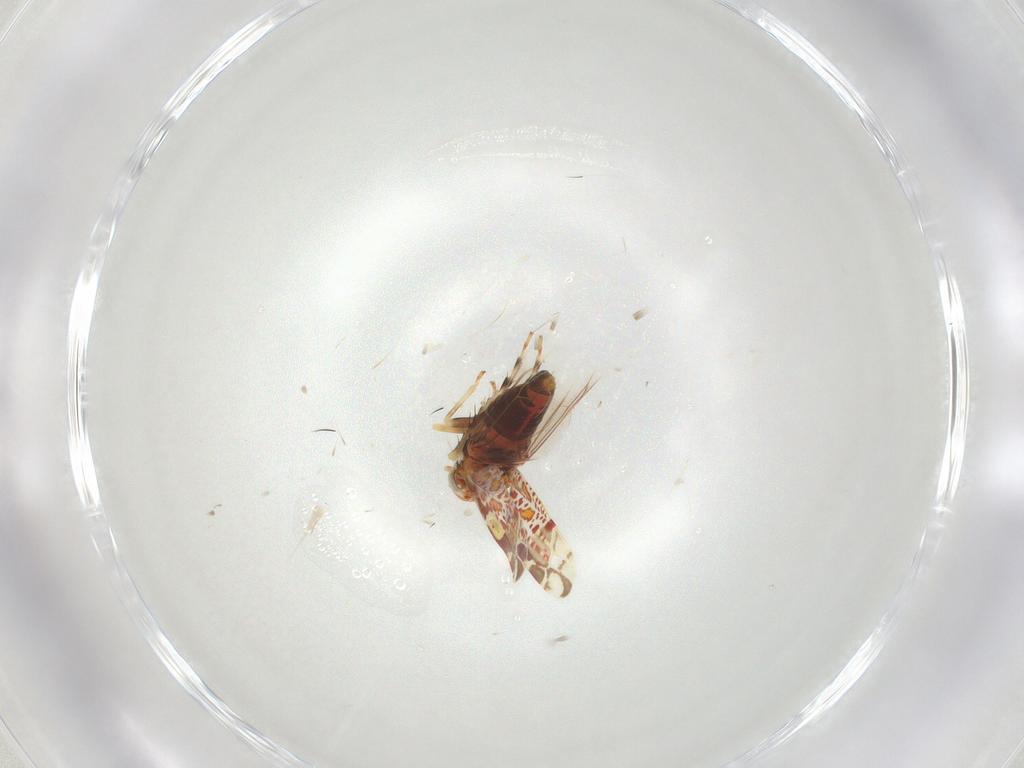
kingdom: Animalia
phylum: Arthropoda
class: Insecta
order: Hemiptera
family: Cicadellidae
